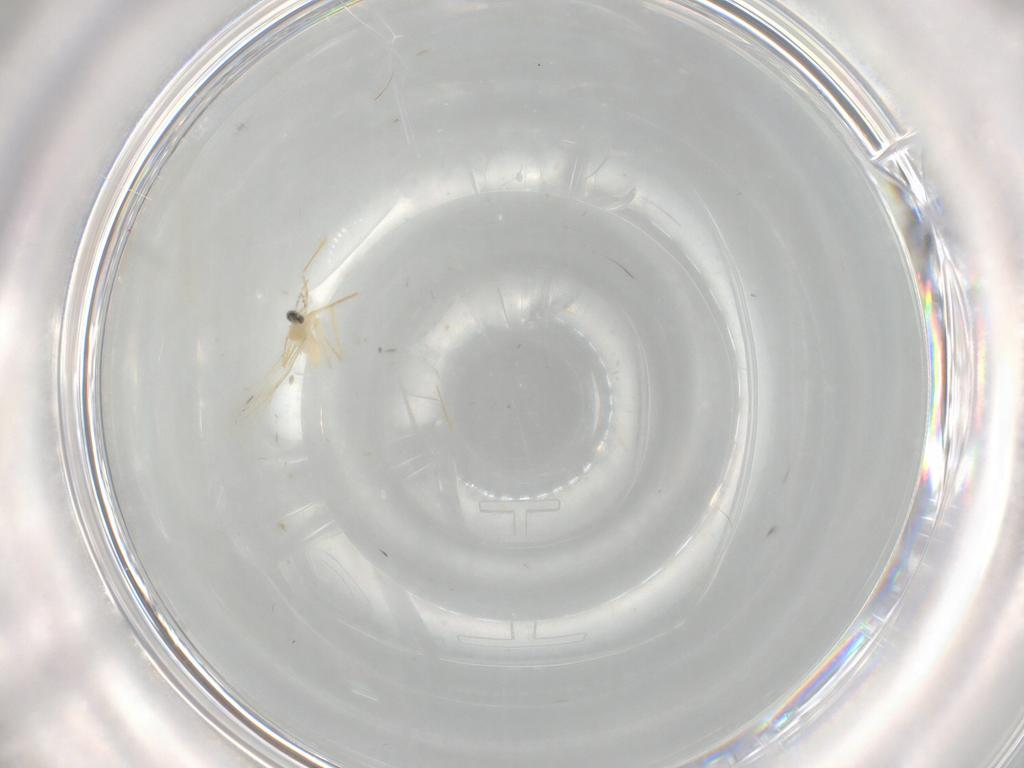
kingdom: Animalia
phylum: Arthropoda
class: Insecta
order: Diptera
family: Cecidomyiidae
